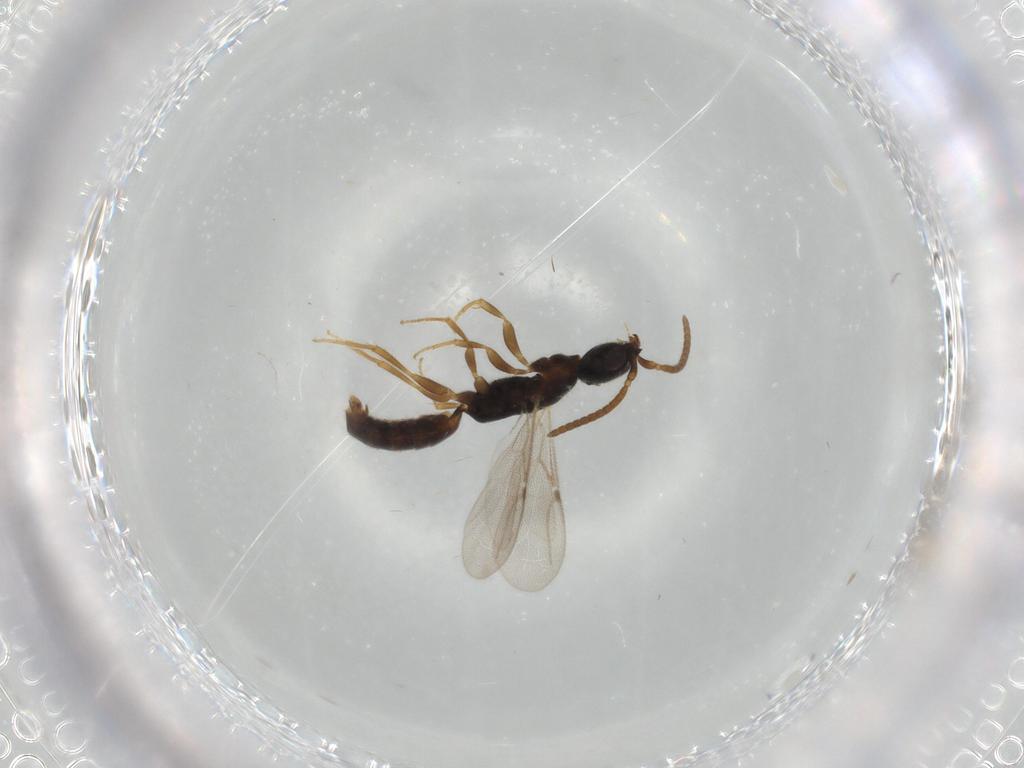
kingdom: Animalia
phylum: Arthropoda
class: Insecta
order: Hymenoptera
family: Bethylidae
